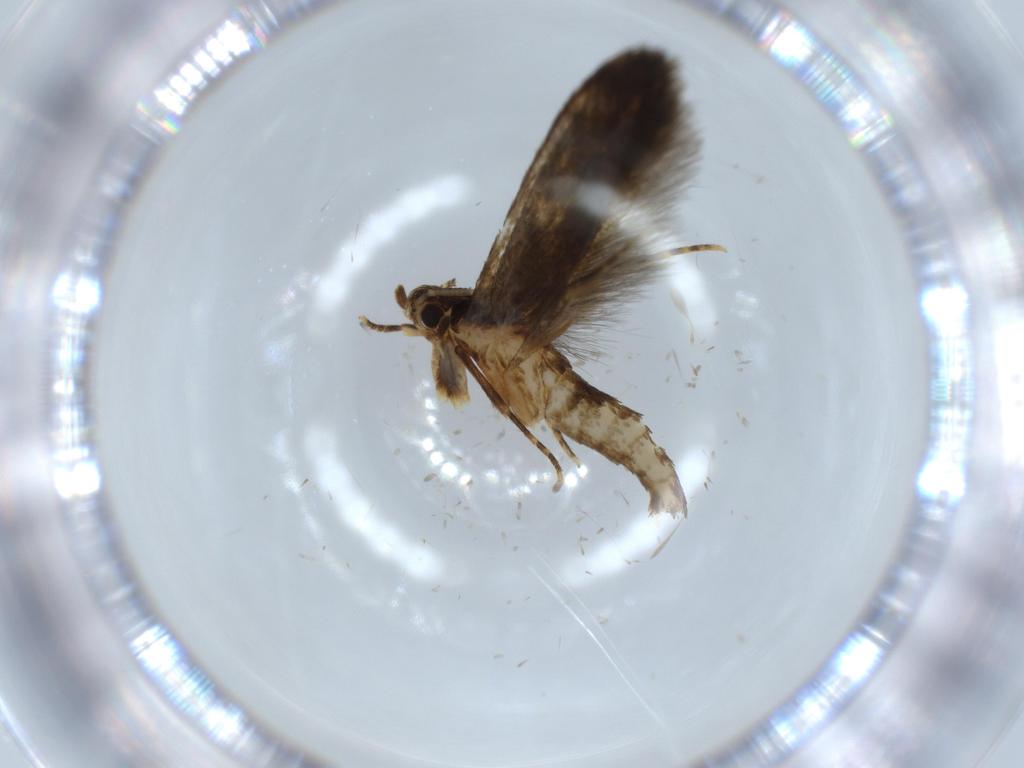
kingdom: Animalia
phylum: Arthropoda
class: Insecta
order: Lepidoptera
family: Tineidae
